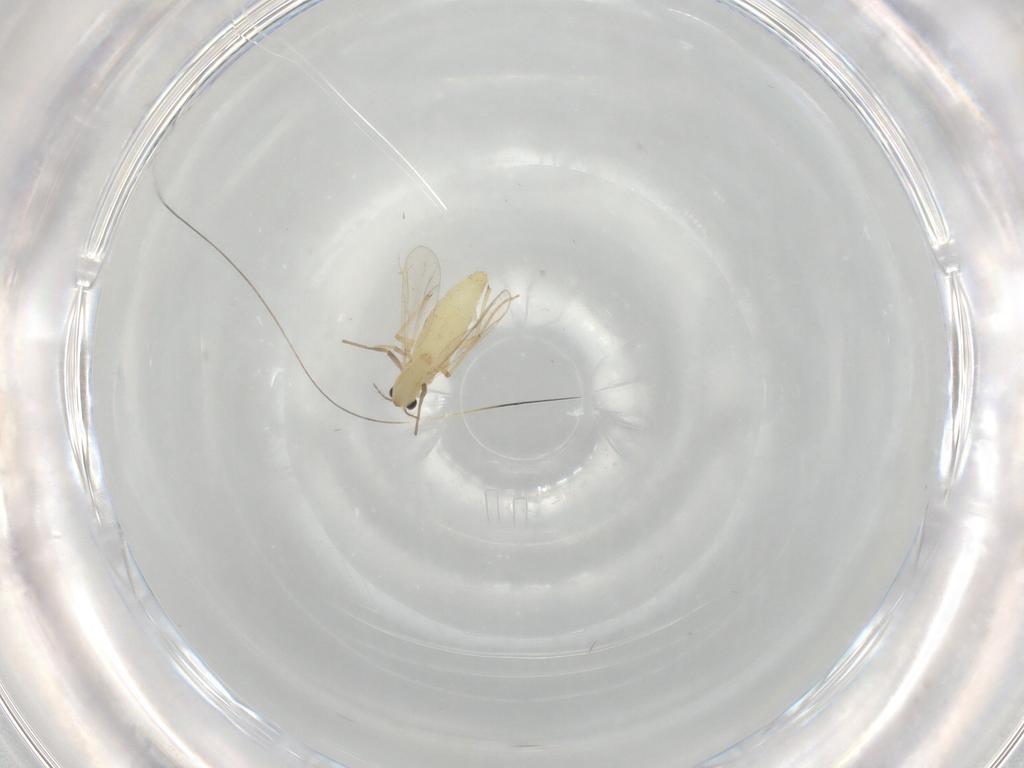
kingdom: Animalia
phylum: Arthropoda
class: Insecta
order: Diptera
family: Chironomidae
